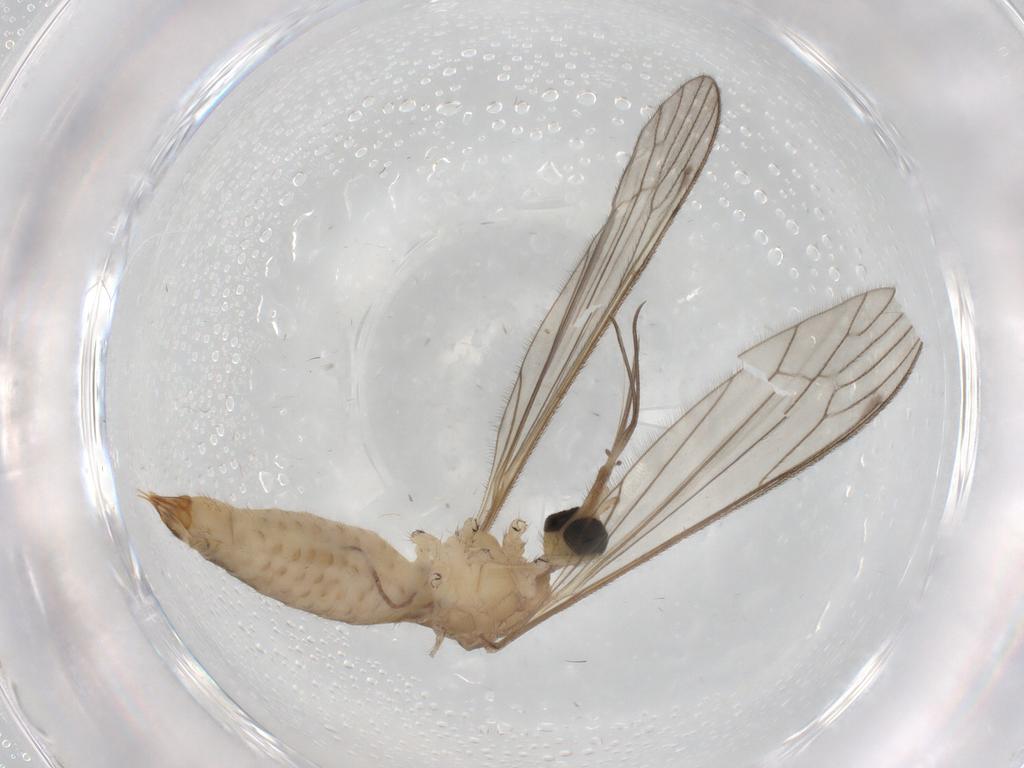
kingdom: Animalia
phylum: Arthropoda
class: Insecta
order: Diptera
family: Limoniidae
